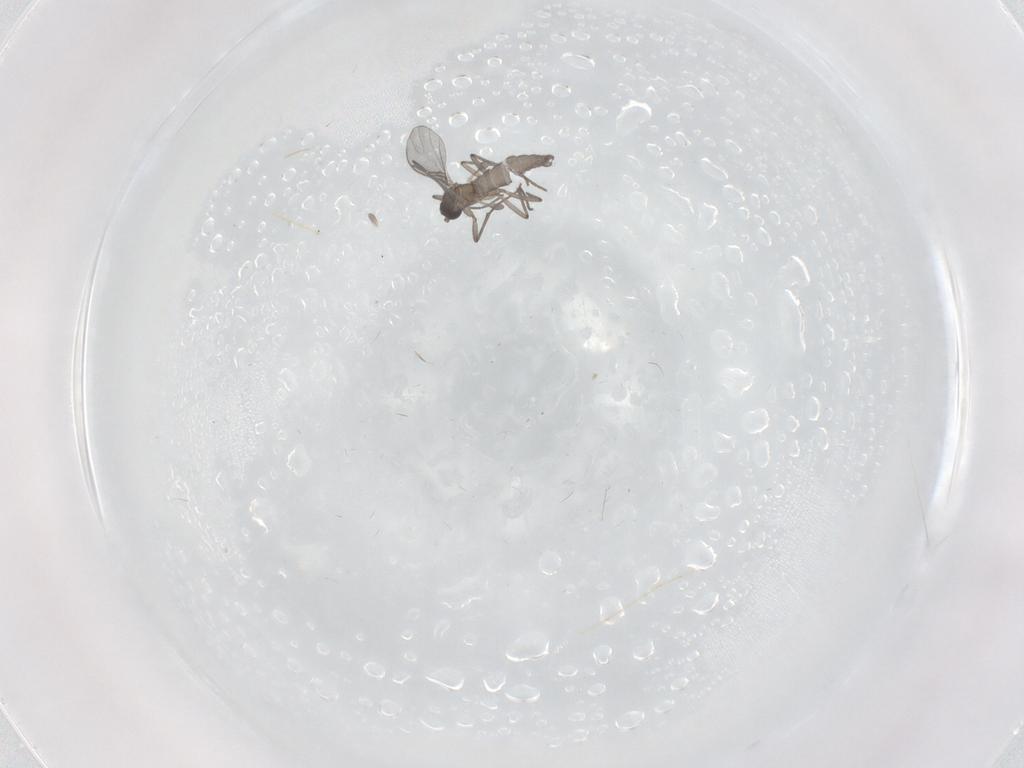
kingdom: Animalia
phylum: Arthropoda
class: Insecta
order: Diptera
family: Sciaridae
